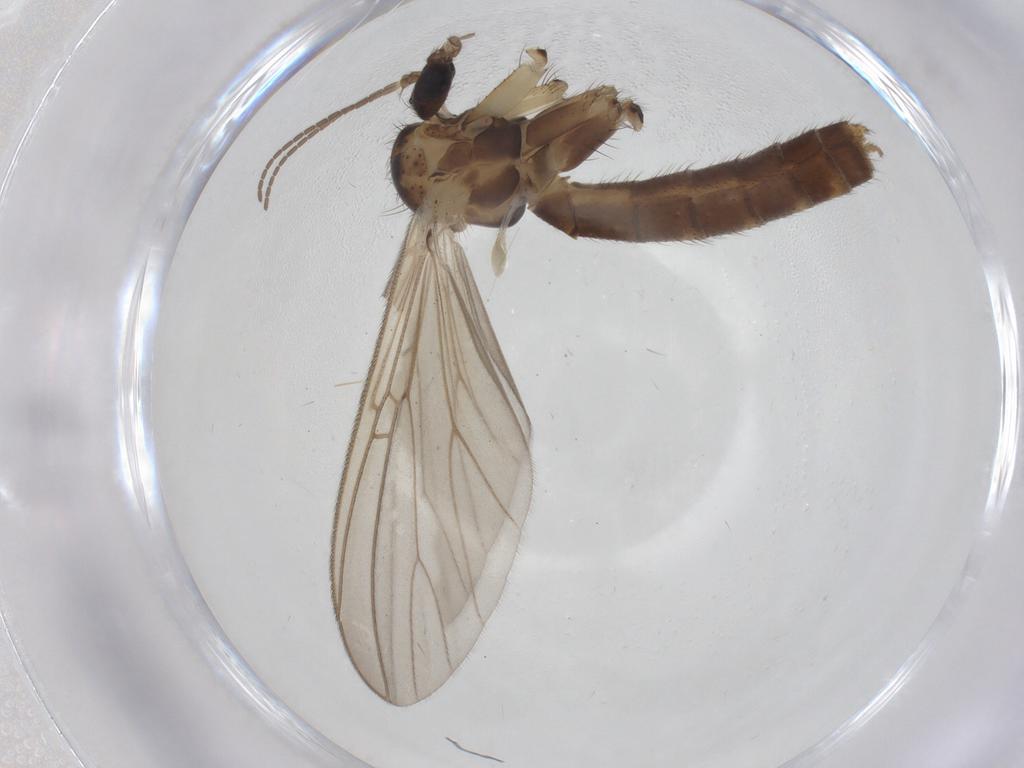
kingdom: Animalia
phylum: Arthropoda
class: Insecta
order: Diptera
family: Mycetophilidae
